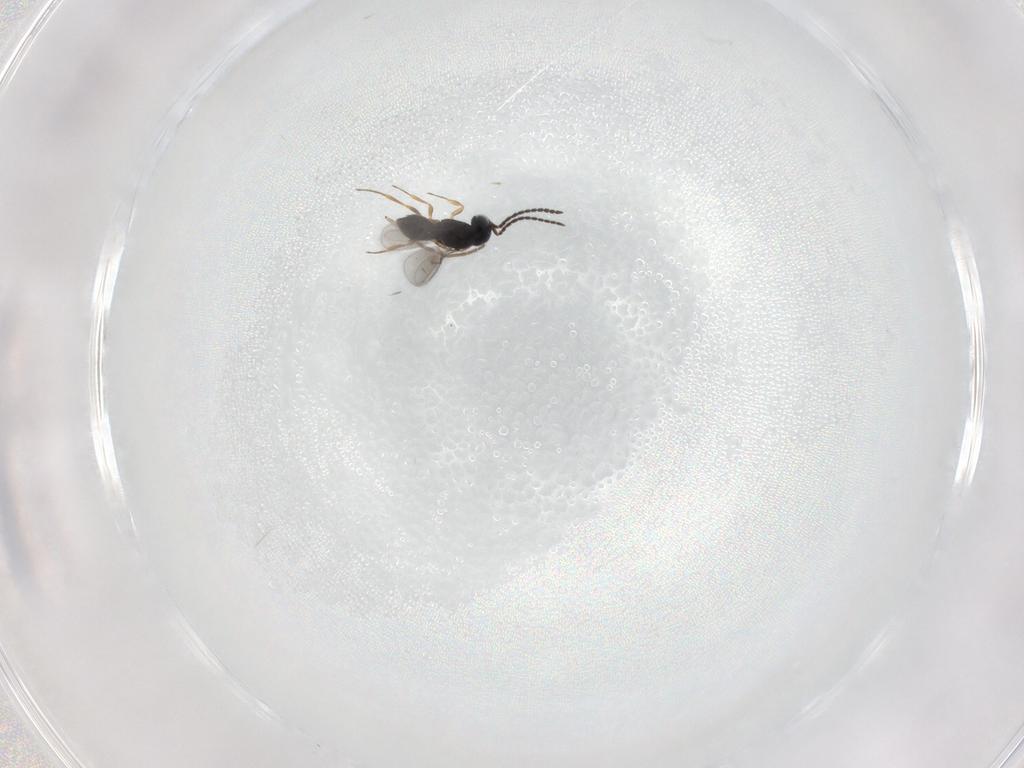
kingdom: Animalia
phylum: Arthropoda
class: Insecta
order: Hymenoptera
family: Scelionidae
